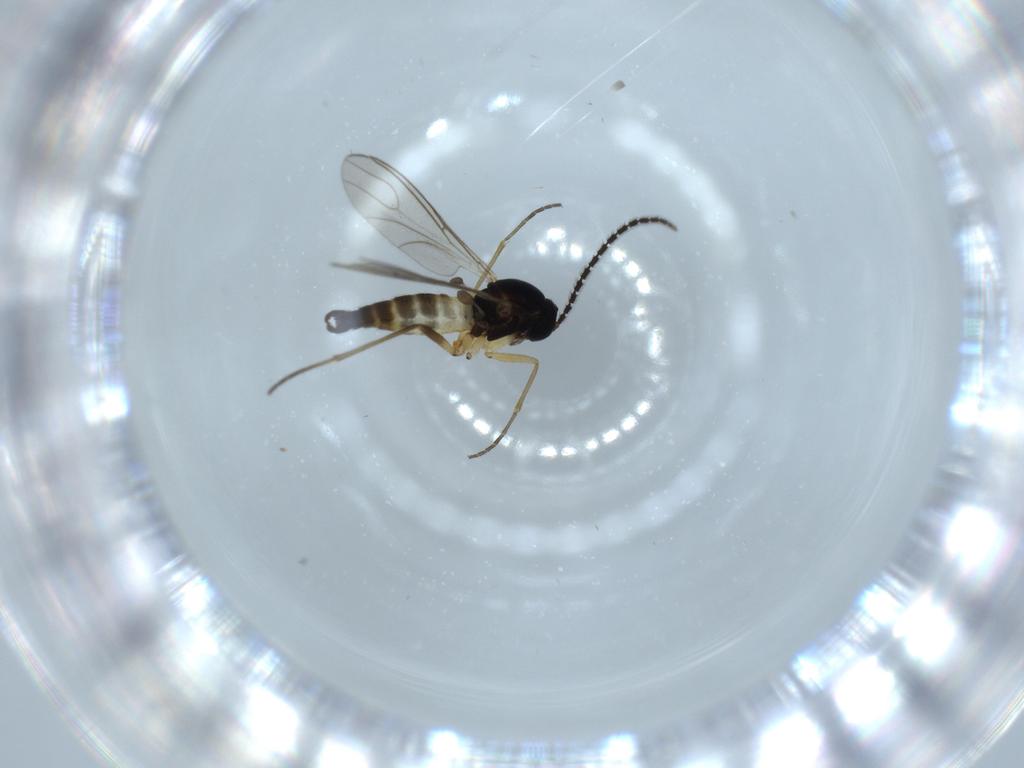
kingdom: Animalia
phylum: Arthropoda
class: Insecta
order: Diptera
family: Sciaridae
